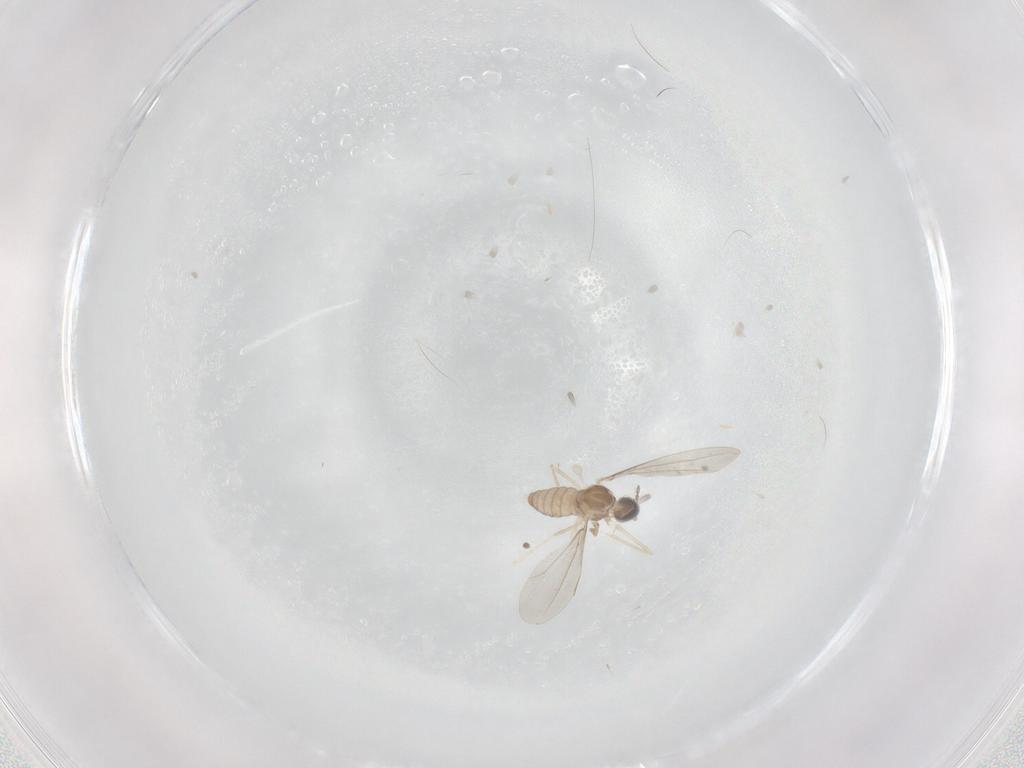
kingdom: Animalia
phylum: Arthropoda
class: Insecta
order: Diptera
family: Cecidomyiidae
